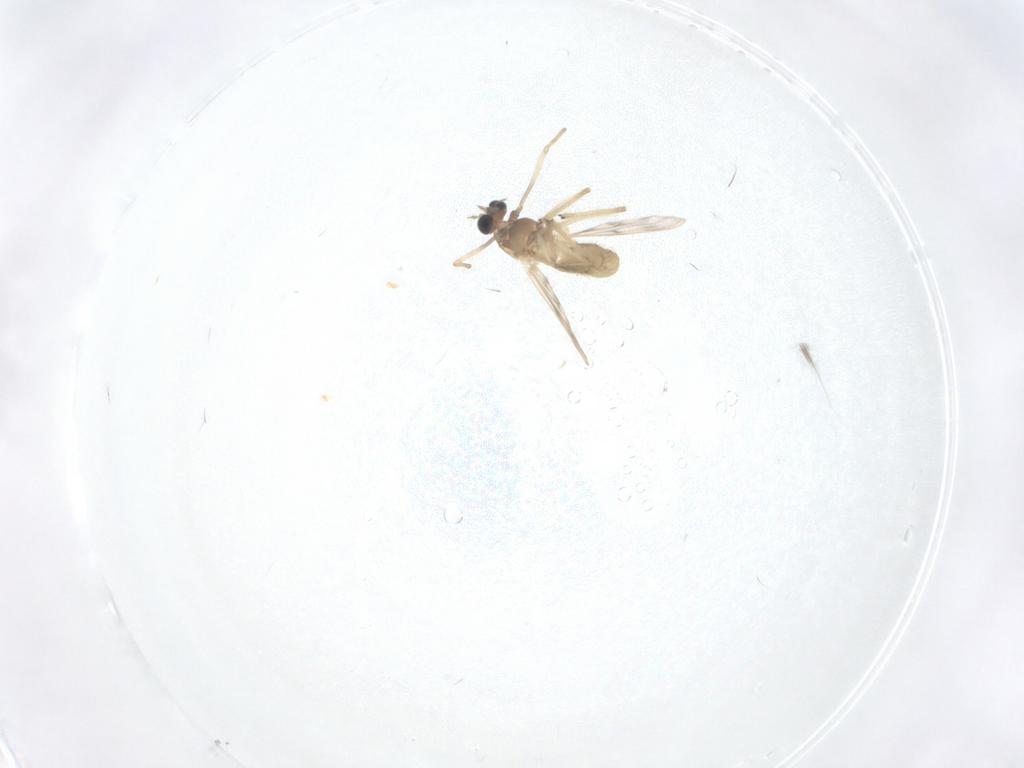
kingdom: Animalia
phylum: Arthropoda
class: Insecta
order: Diptera
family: Chironomidae
